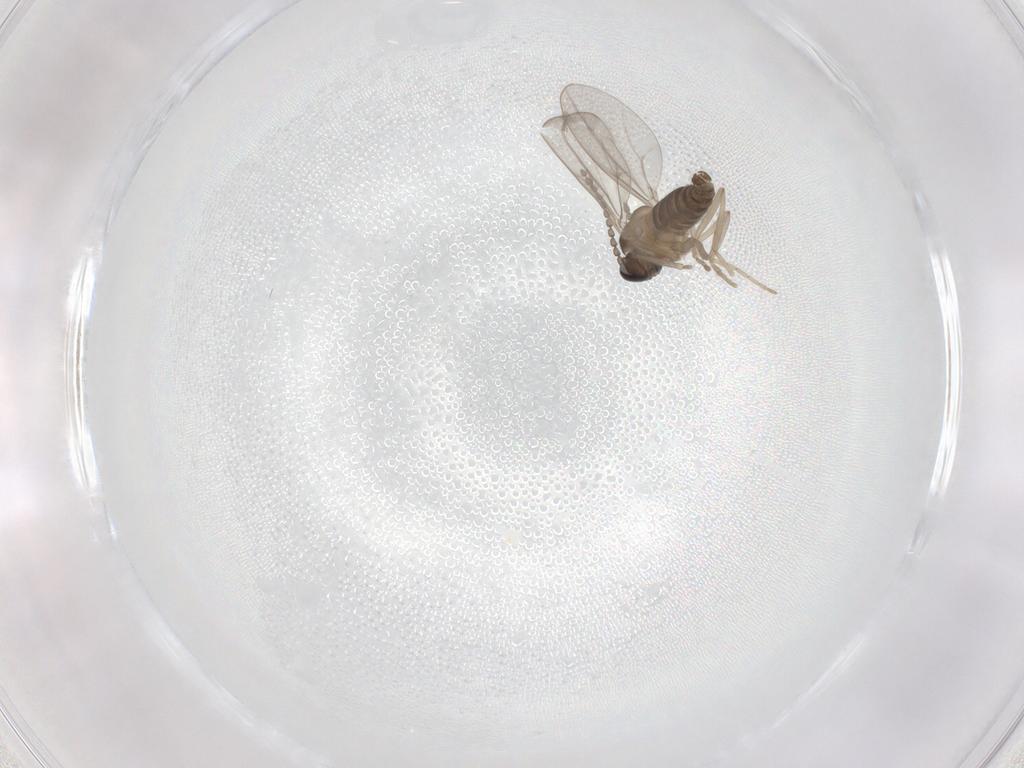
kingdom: Animalia
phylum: Arthropoda
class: Insecta
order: Diptera
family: Cecidomyiidae
